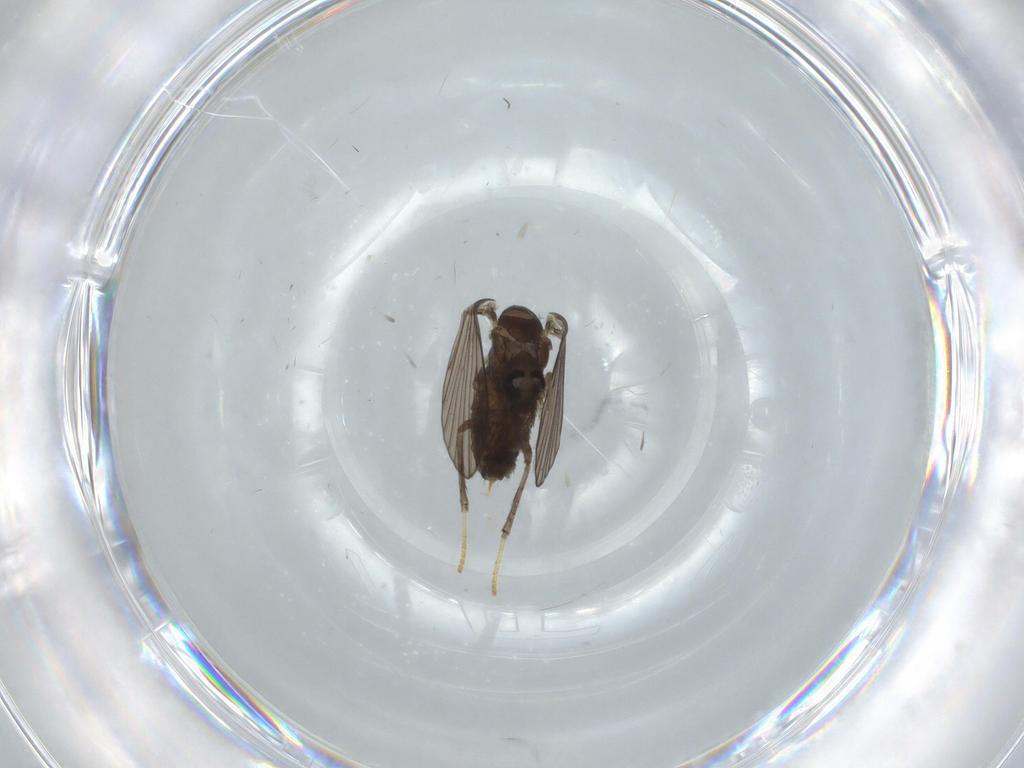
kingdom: Animalia
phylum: Arthropoda
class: Insecta
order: Diptera
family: Psychodidae
